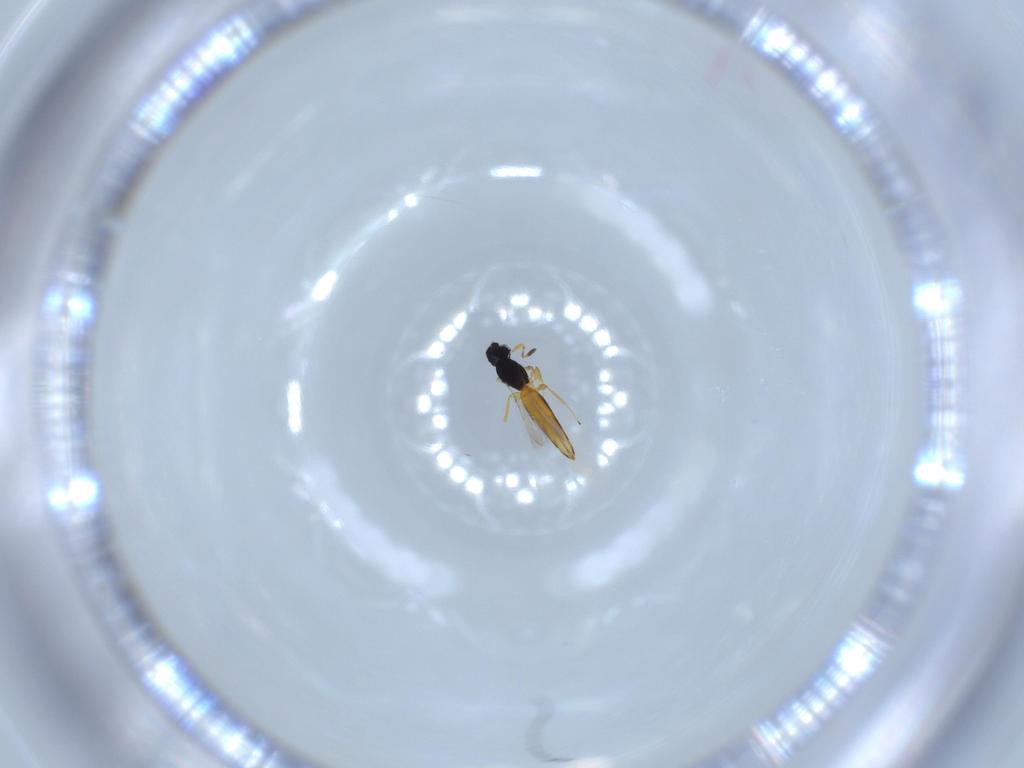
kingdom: Animalia
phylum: Arthropoda
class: Insecta
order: Hymenoptera
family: Scelionidae
